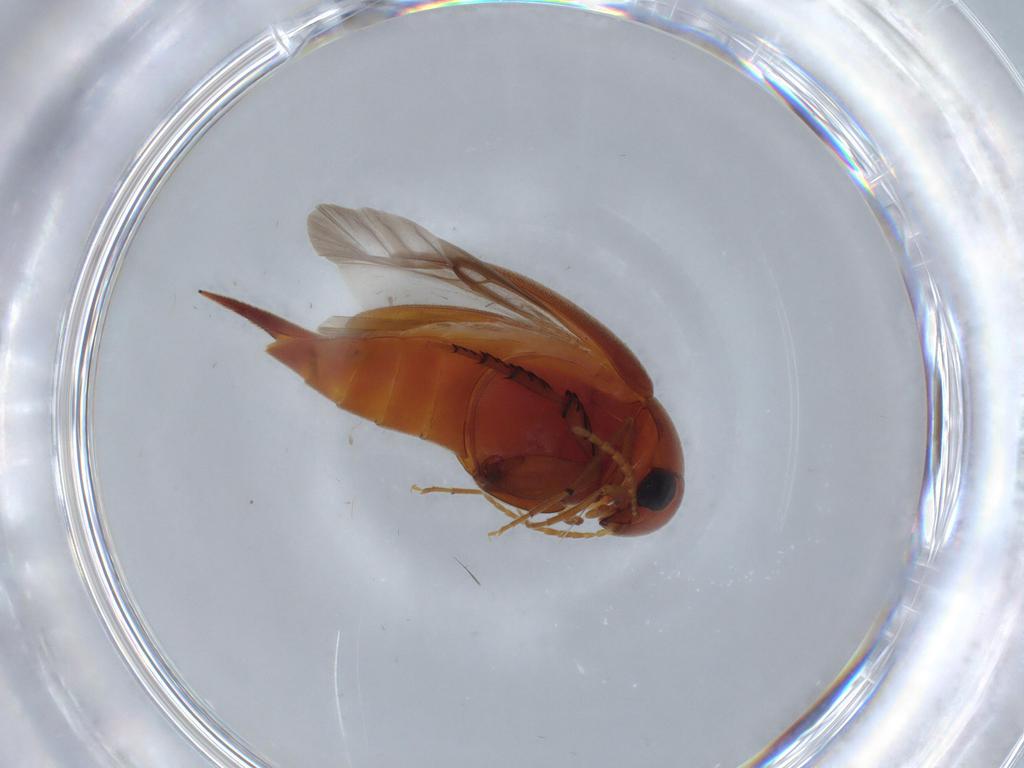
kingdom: Animalia
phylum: Arthropoda
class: Insecta
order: Coleoptera
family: Mordellidae
